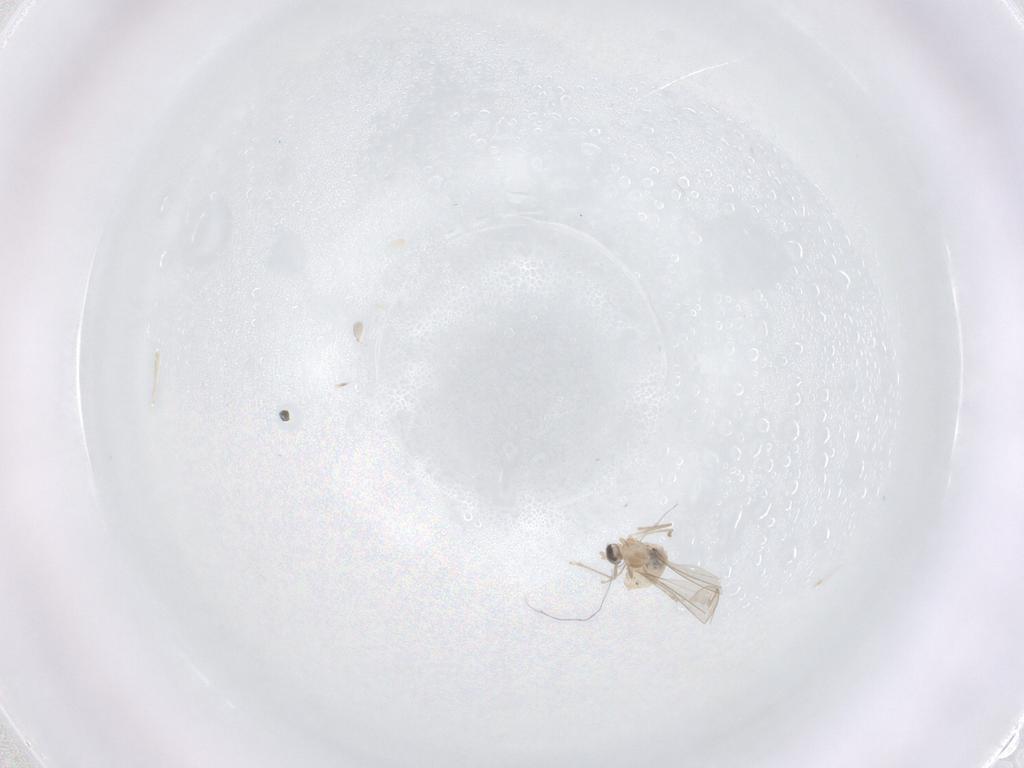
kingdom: Animalia
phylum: Arthropoda
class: Insecta
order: Diptera
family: Cecidomyiidae
